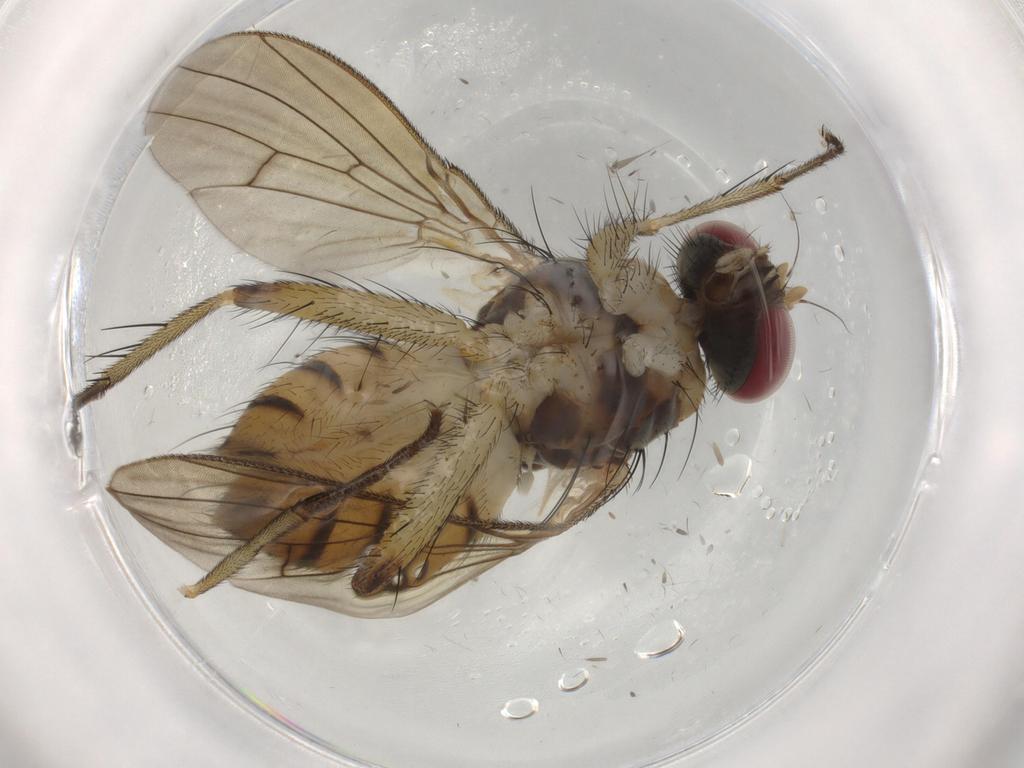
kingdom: Animalia
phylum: Arthropoda
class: Insecta
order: Diptera
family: Muscidae
